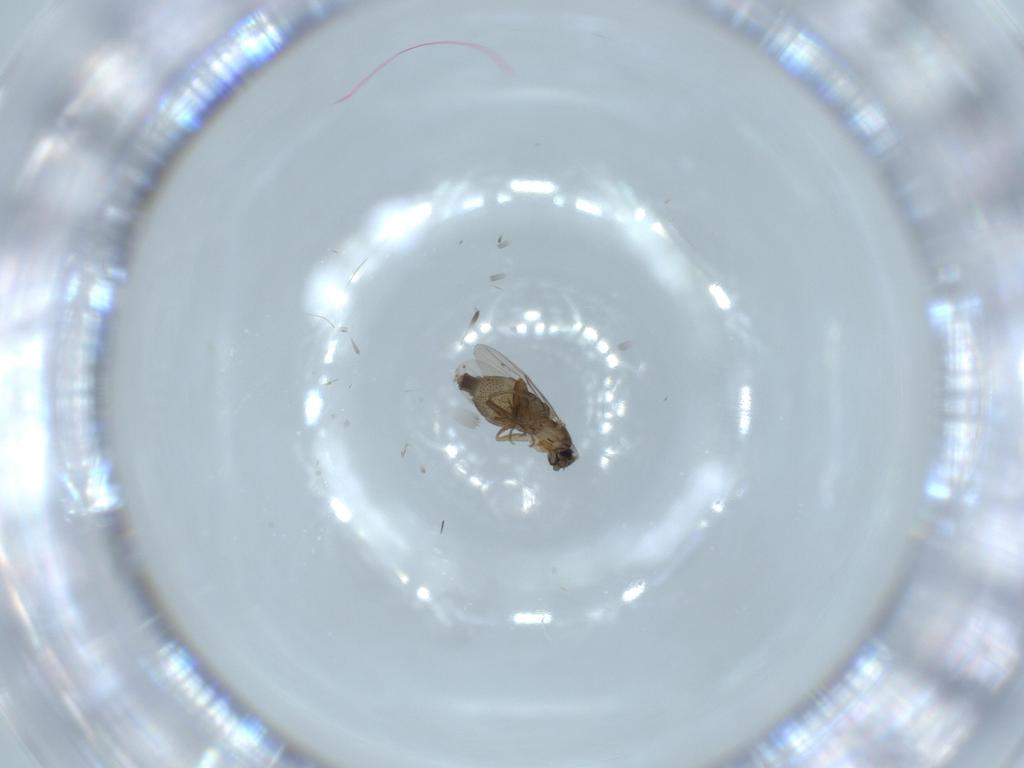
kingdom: Animalia
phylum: Arthropoda
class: Insecta
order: Diptera
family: Phoridae
